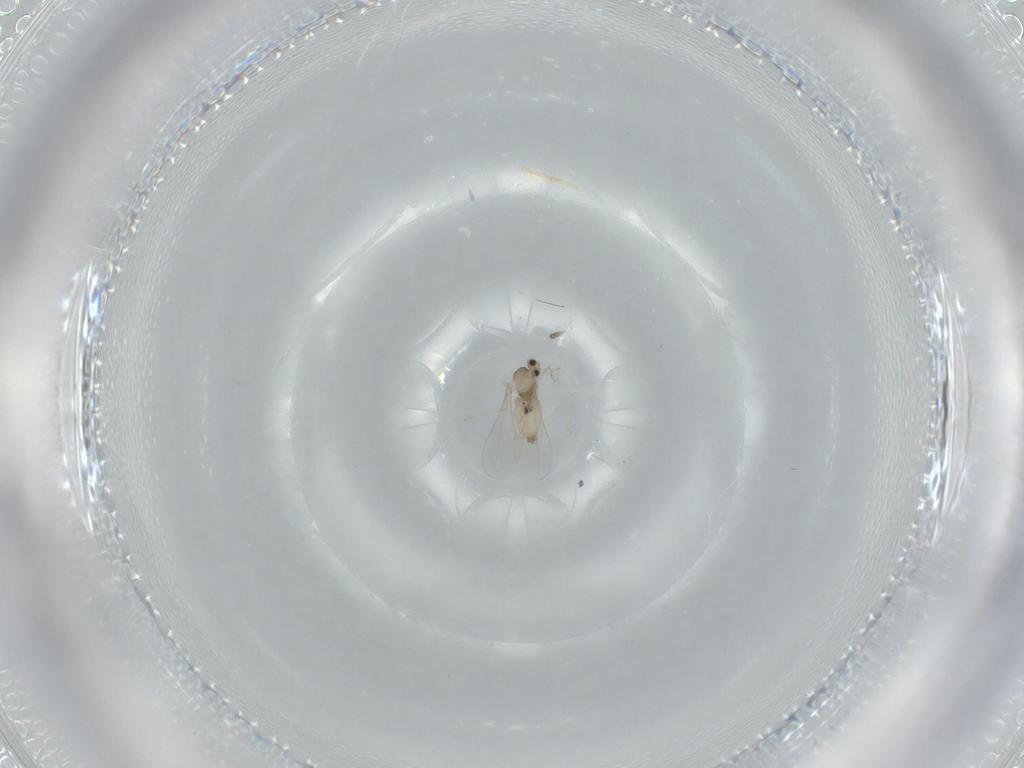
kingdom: Animalia
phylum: Arthropoda
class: Insecta
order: Diptera
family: Cecidomyiidae
